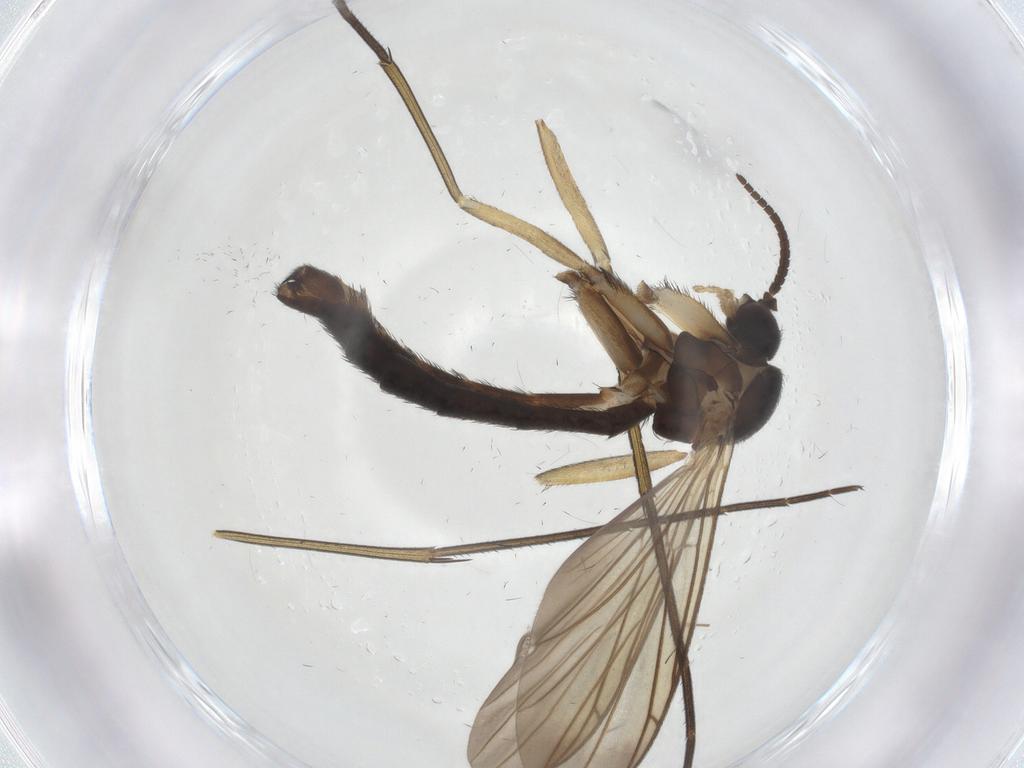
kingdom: Animalia
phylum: Arthropoda
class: Insecta
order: Diptera
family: Keroplatidae
